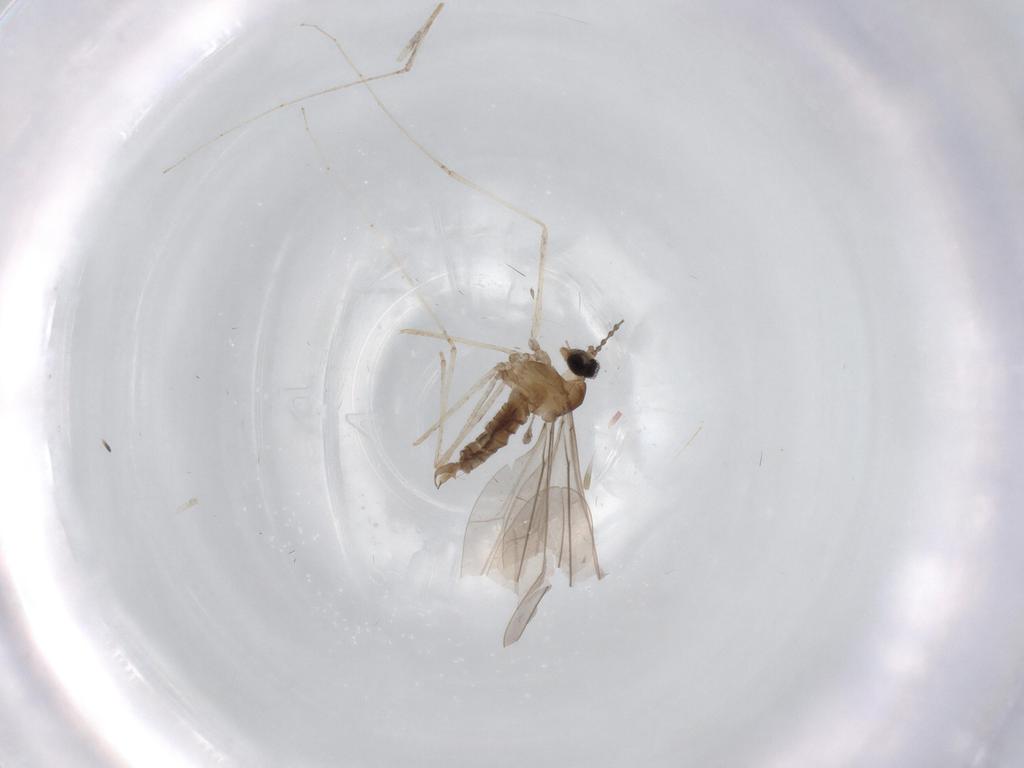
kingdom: Animalia
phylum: Arthropoda
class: Insecta
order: Diptera
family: Cecidomyiidae
